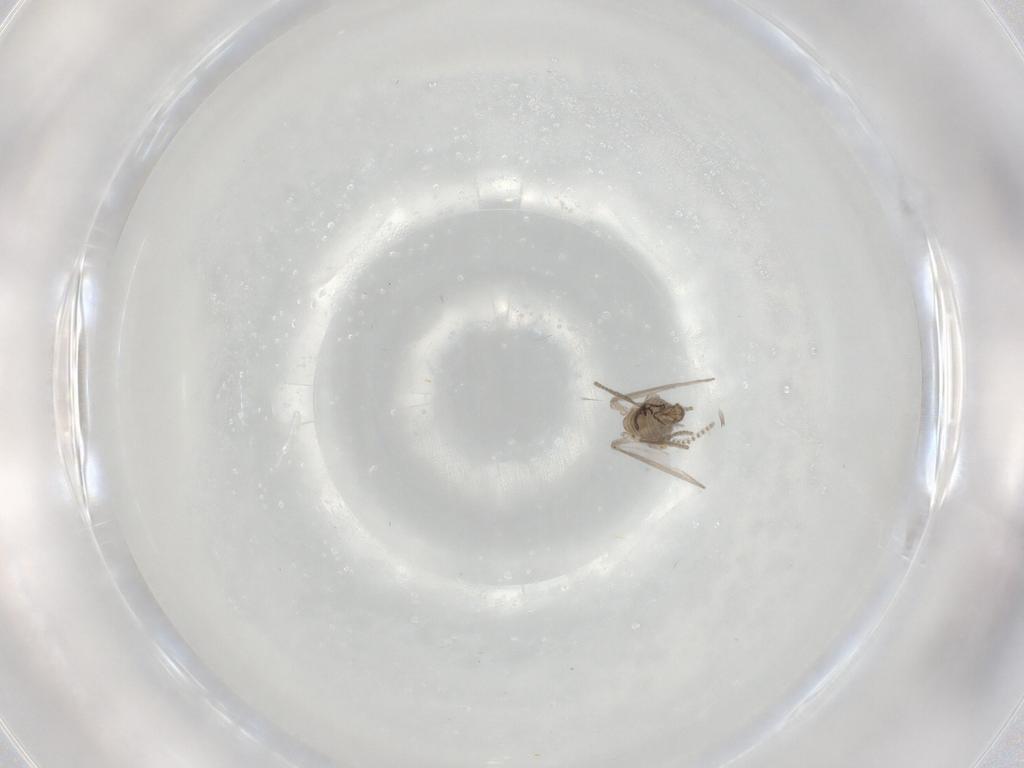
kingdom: Animalia
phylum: Arthropoda
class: Insecta
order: Diptera
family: Psychodidae
